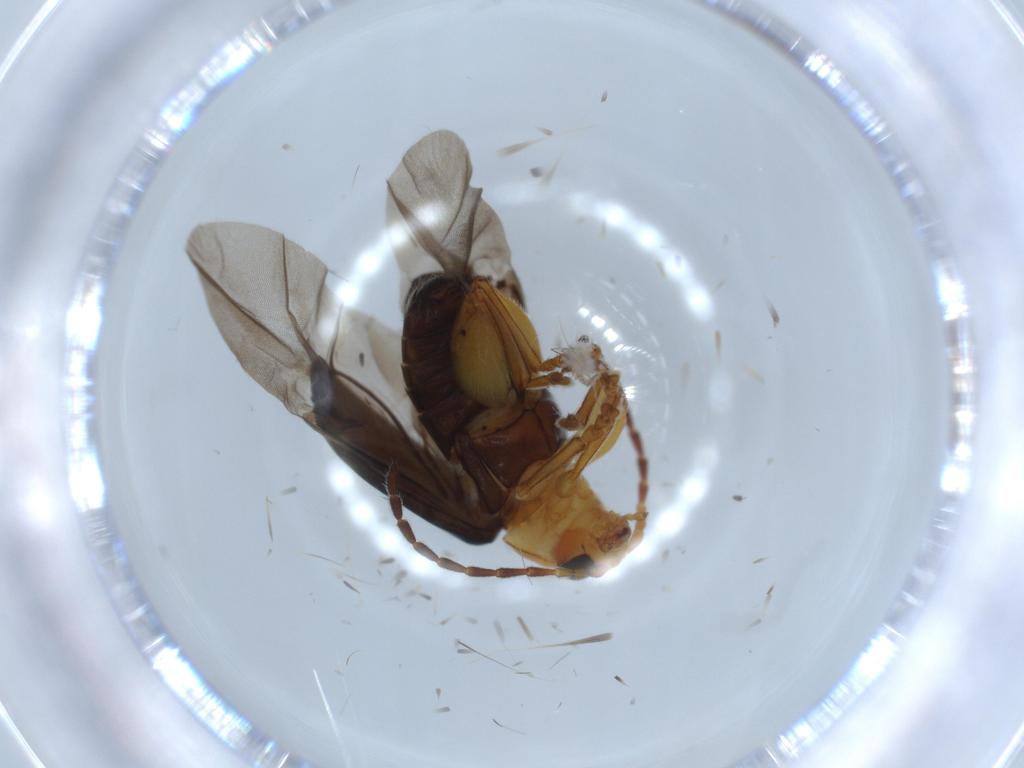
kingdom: Animalia
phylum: Arthropoda
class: Insecta
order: Coleoptera
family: Chrysomelidae
